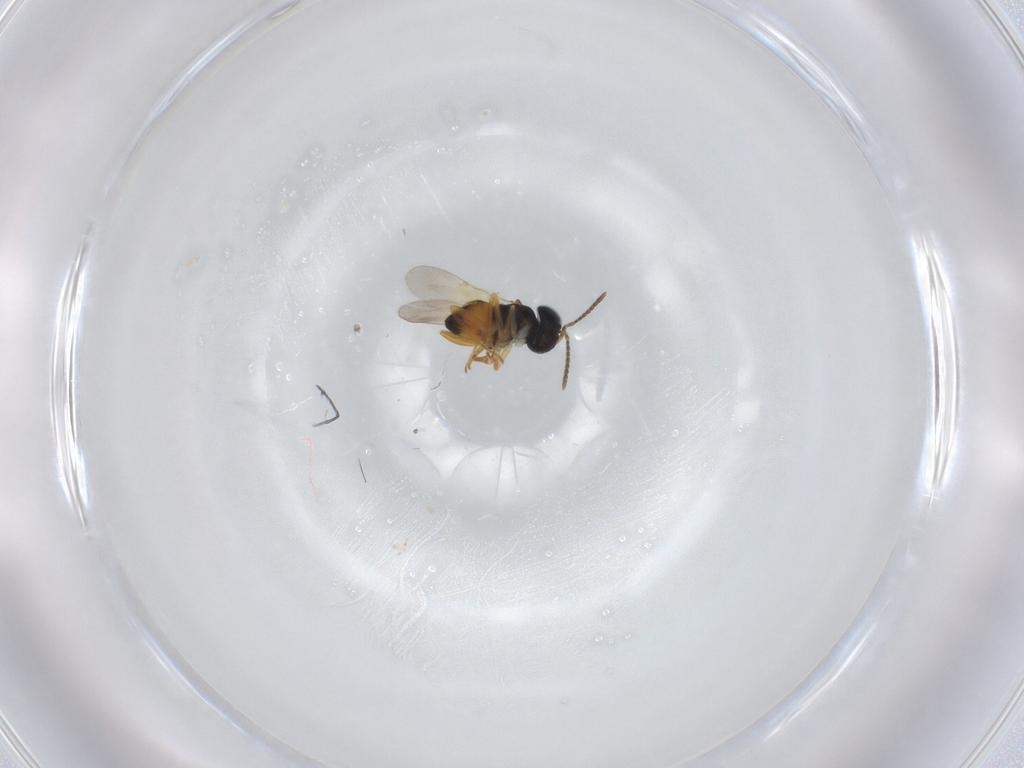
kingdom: Animalia
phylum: Arthropoda
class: Insecta
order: Hymenoptera
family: Encyrtidae
